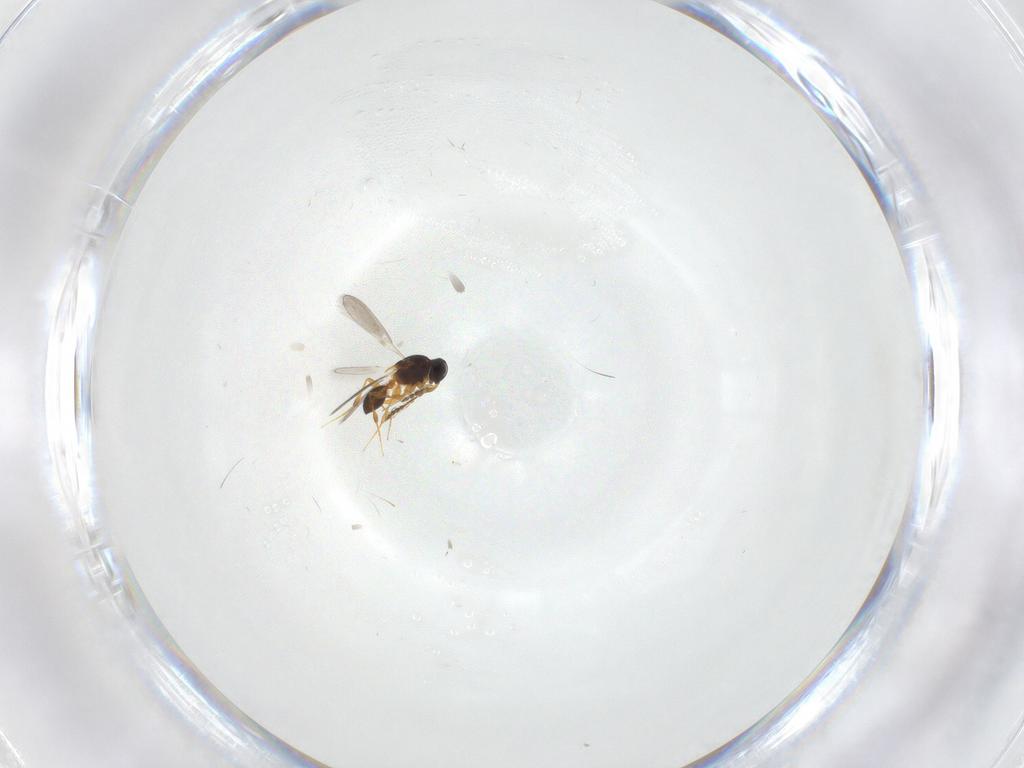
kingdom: Animalia
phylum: Arthropoda
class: Insecta
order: Hymenoptera
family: Platygastridae
